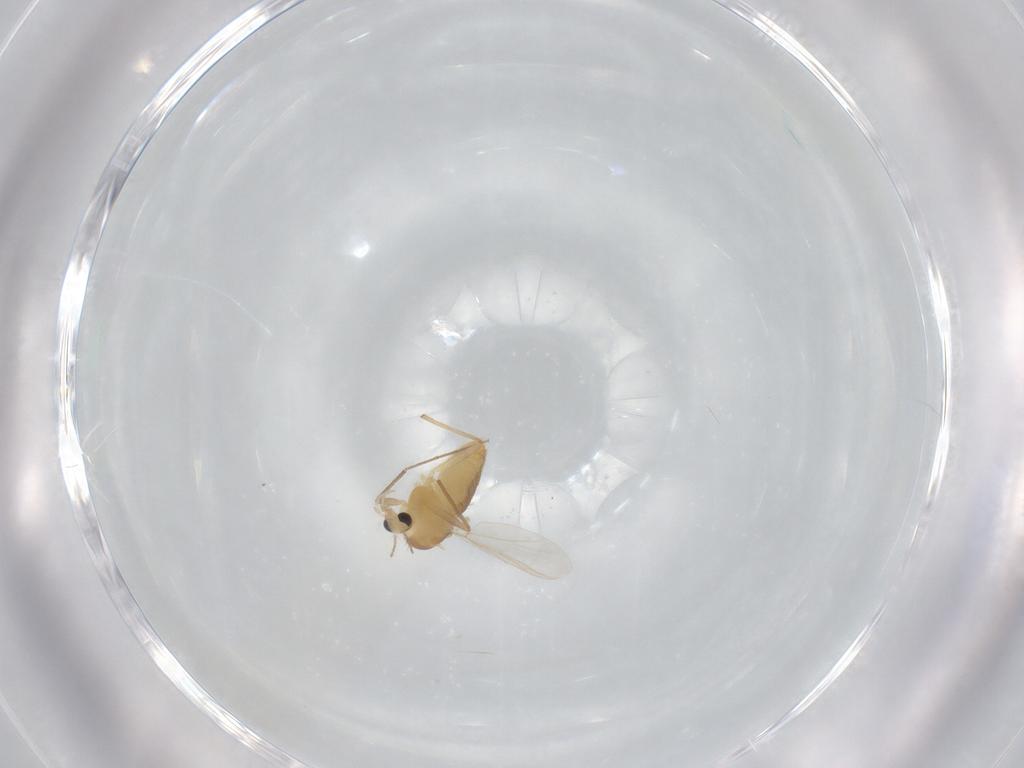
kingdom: Animalia
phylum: Arthropoda
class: Insecta
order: Diptera
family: Chironomidae
